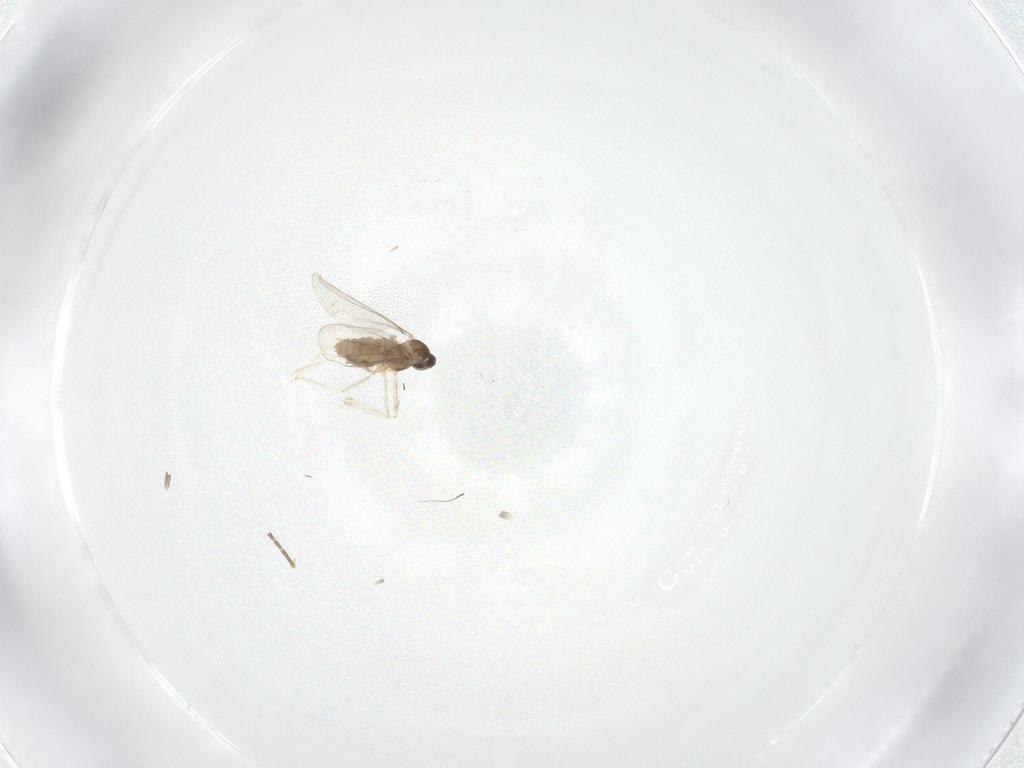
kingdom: Animalia
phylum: Arthropoda
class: Insecta
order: Diptera
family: Cecidomyiidae
